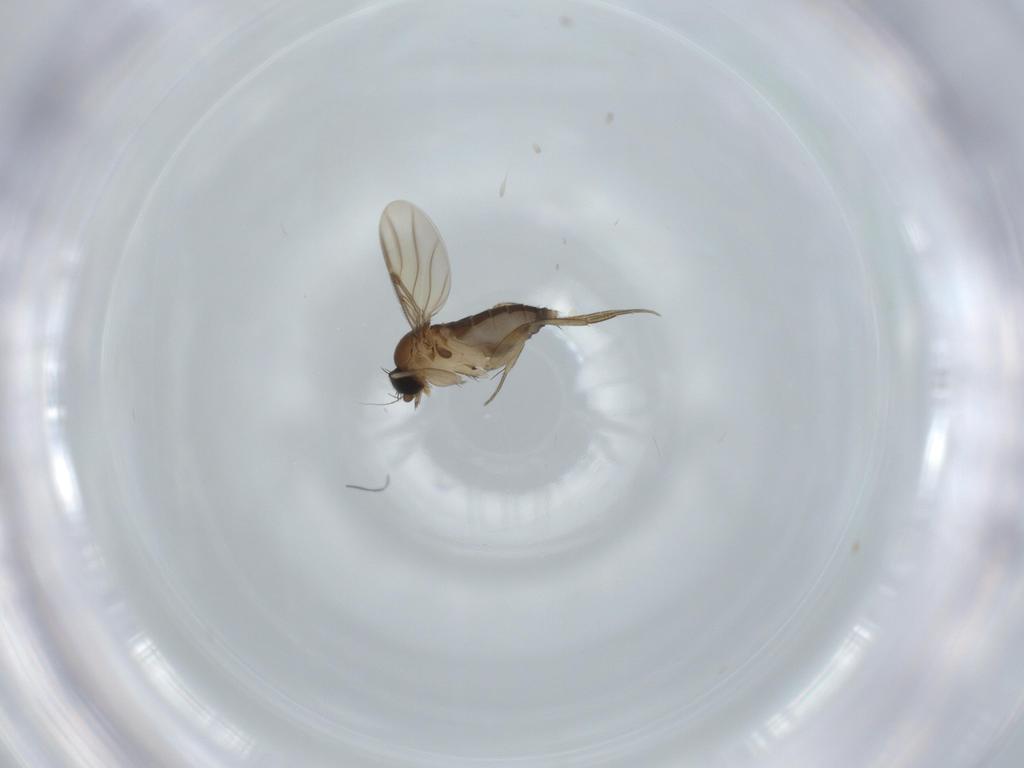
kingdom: Animalia
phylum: Arthropoda
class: Insecta
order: Diptera
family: Phoridae
